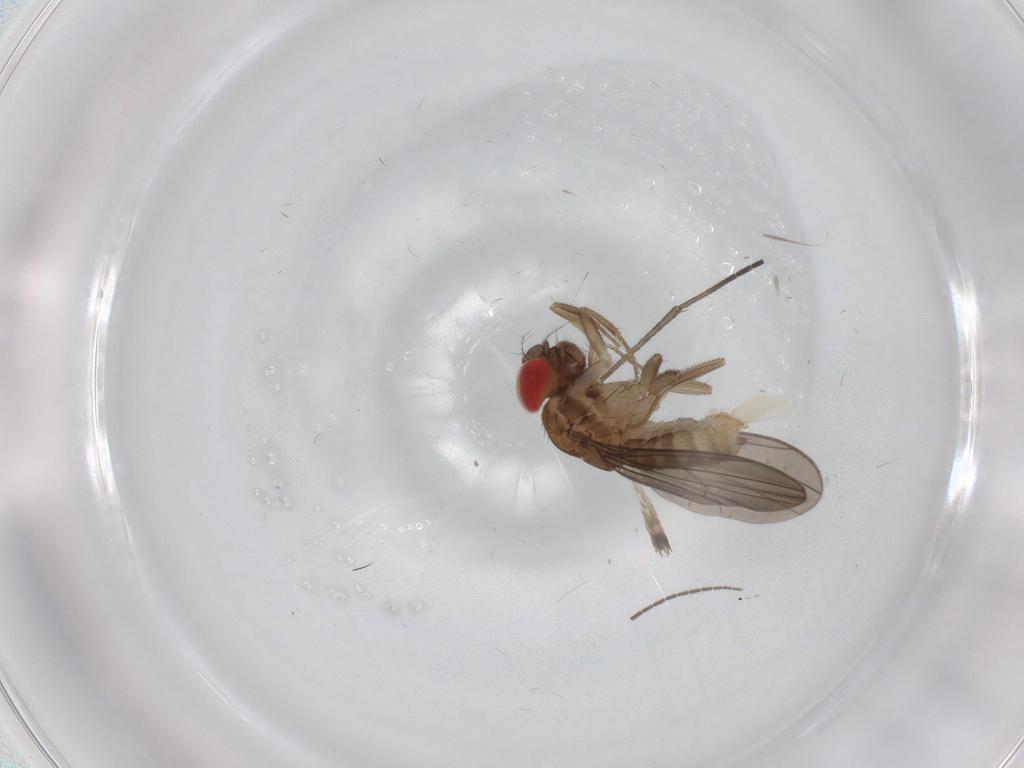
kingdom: Animalia
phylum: Arthropoda
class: Insecta
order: Diptera
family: Drosophilidae
